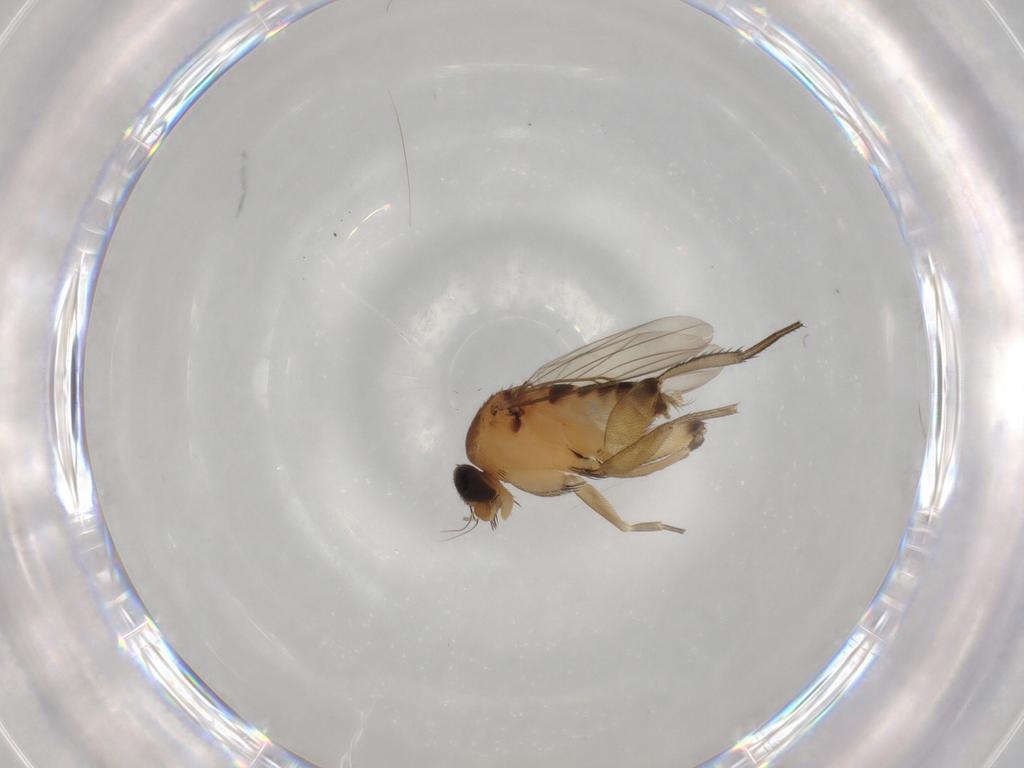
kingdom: Animalia
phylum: Arthropoda
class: Insecta
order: Diptera
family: Phoridae
